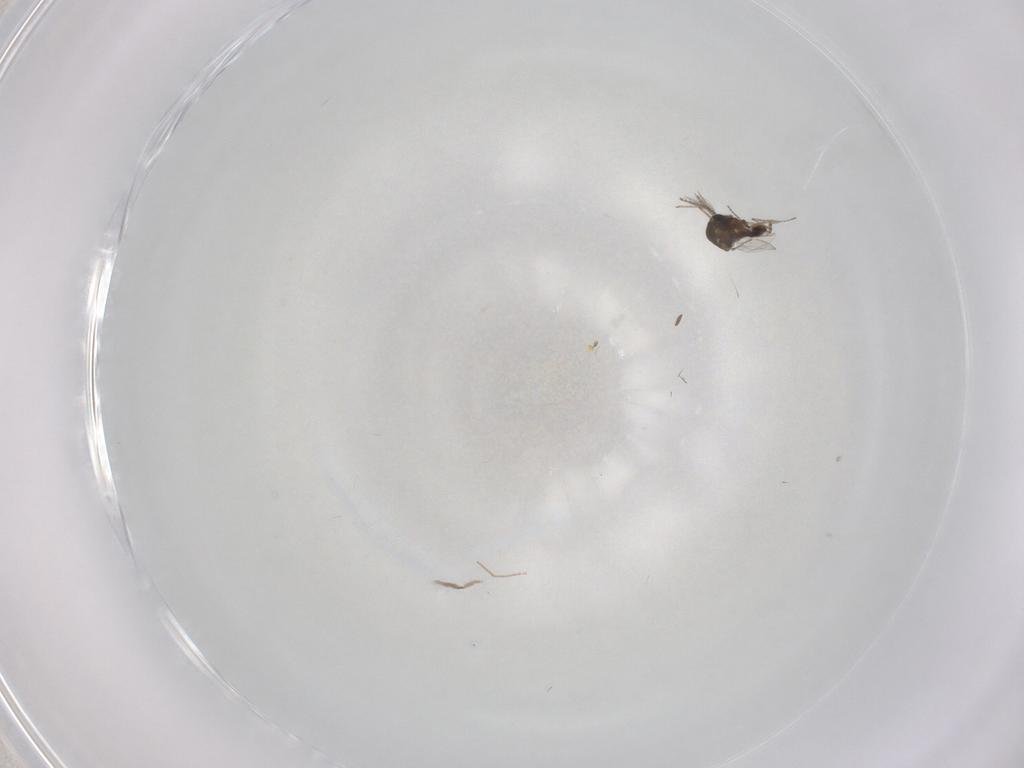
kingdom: Animalia
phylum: Arthropoda
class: Insecta
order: Diptera
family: Ceratopogonidae
